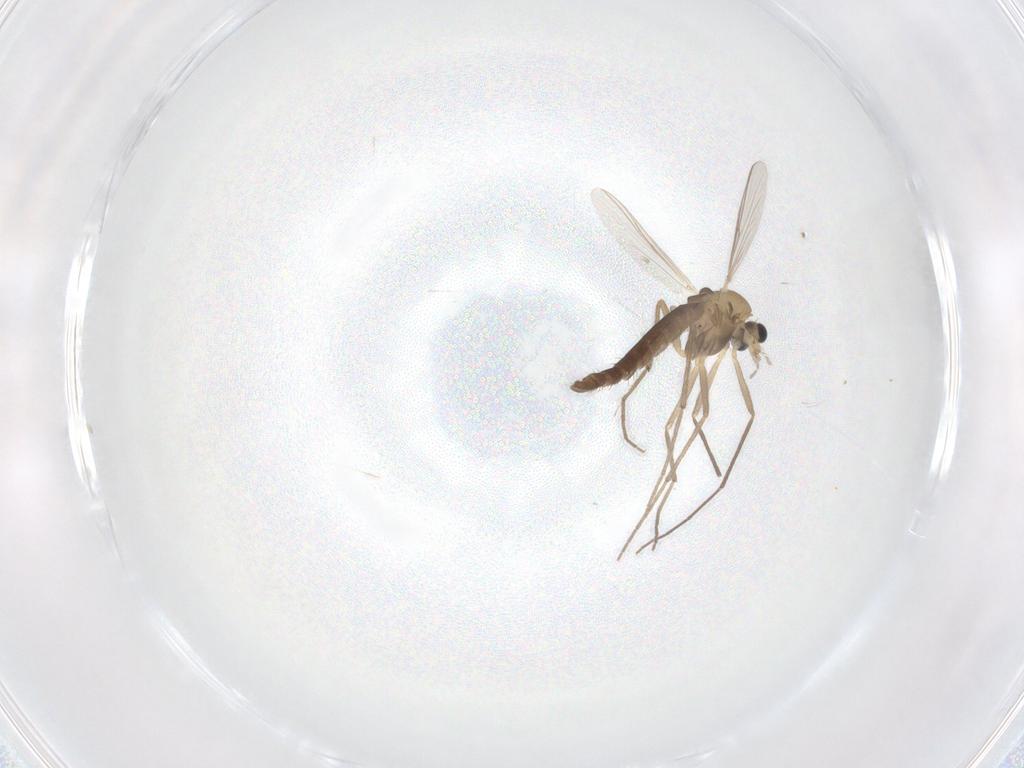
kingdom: Animalia
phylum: Arthropoda
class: Insecta
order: Diptera
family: Chironomidae
